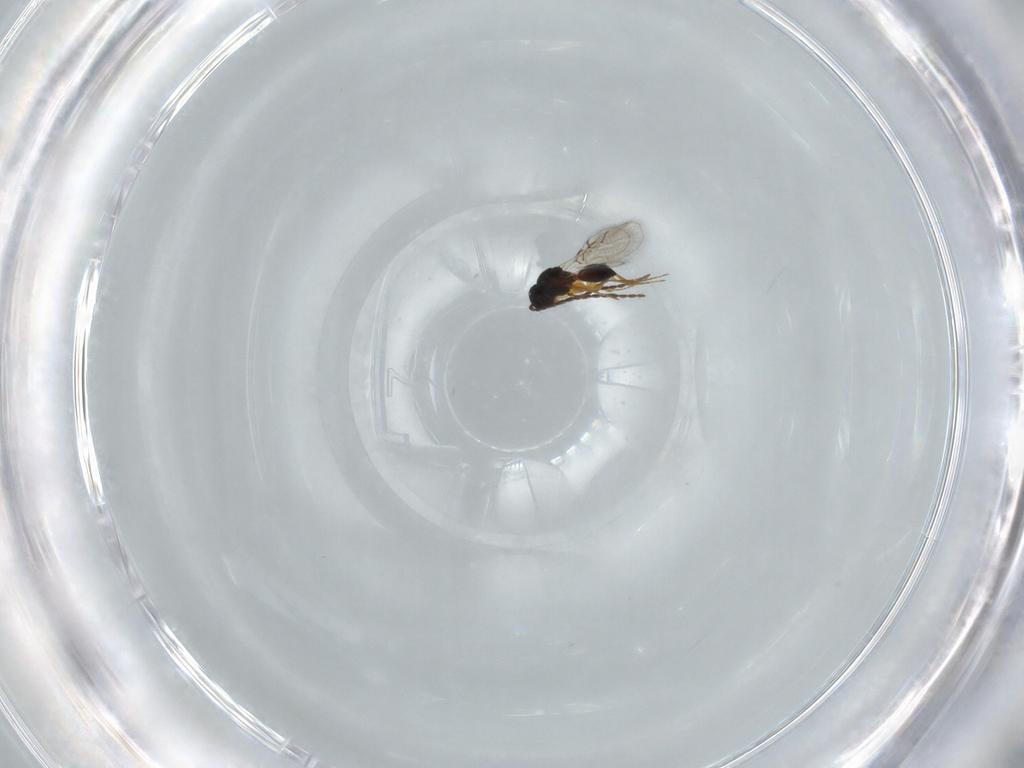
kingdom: Animalia
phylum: Arthropoda
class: Insecta
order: Hymenoptera
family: Figitidae
